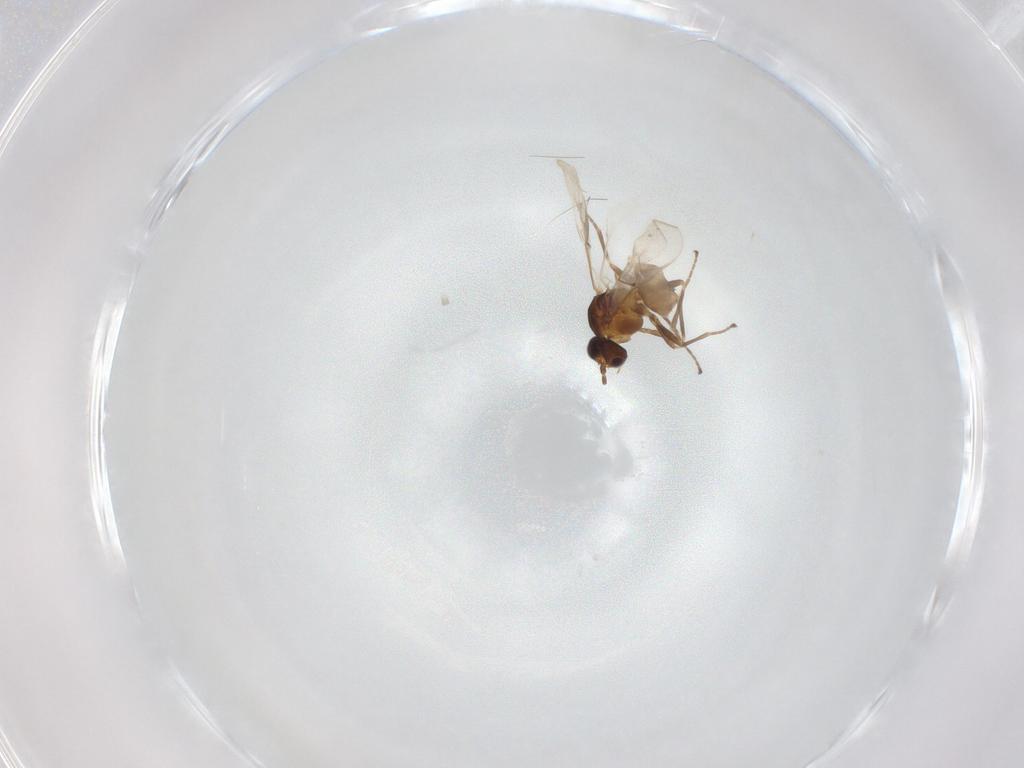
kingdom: Animalia
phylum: Arthropoda
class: Insecta
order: Hymenoptera
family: Braconidae
